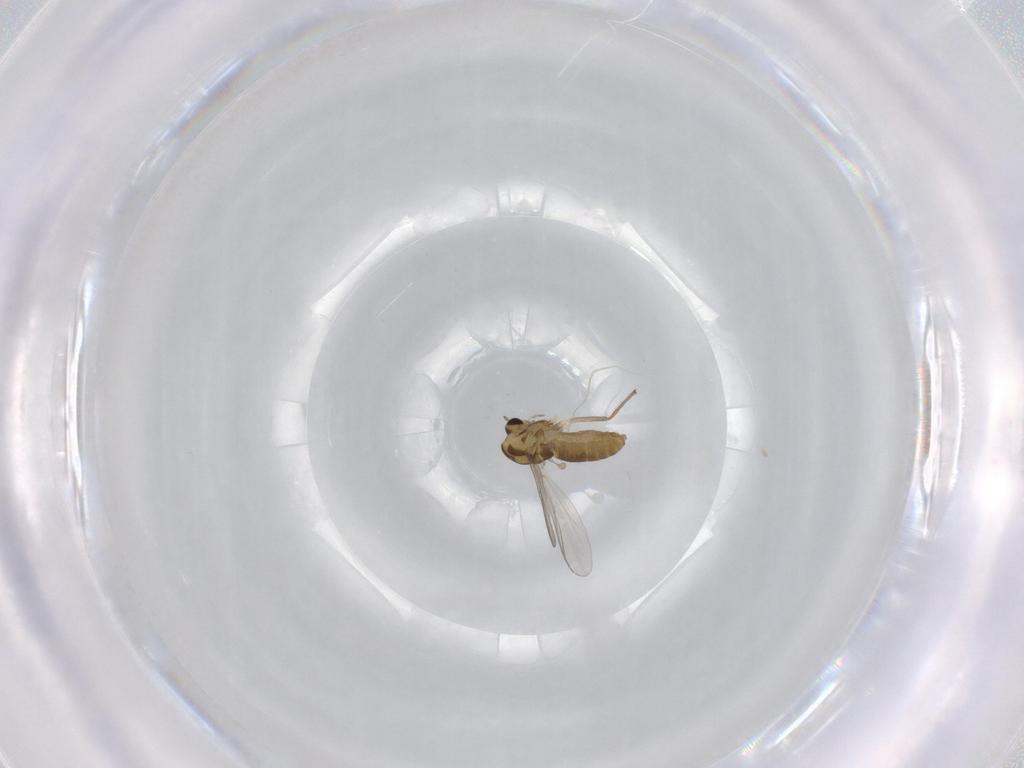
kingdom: Animalia
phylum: Arthropoda
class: Insecta
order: Diptera
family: Chironomidae
